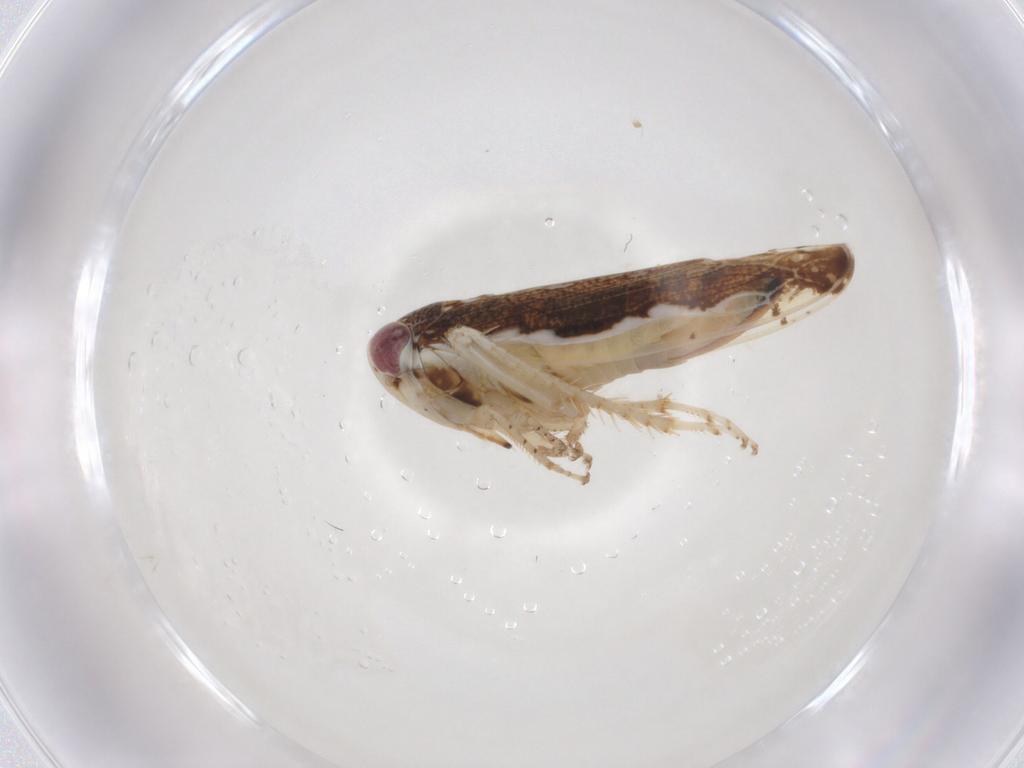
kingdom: Animalia
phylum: Arthropoda
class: Insecta
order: Hemiptera
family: Cicadellidae
